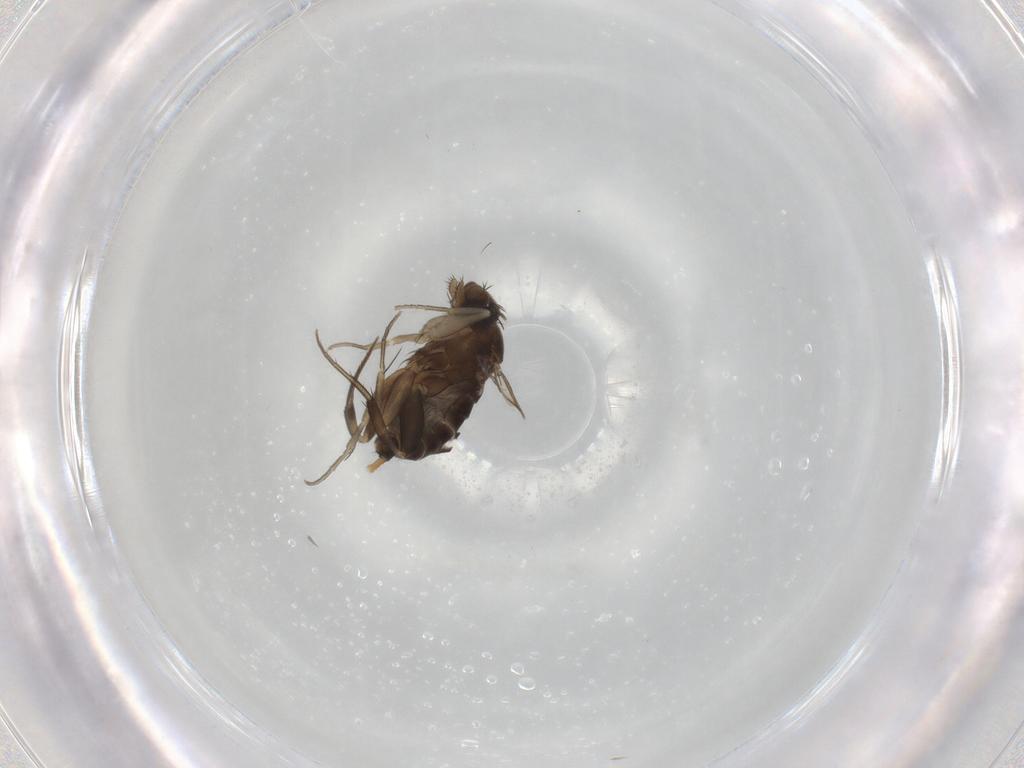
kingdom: Animalia
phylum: Arthropoda
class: Insecta
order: Diptera
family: Phoridae
